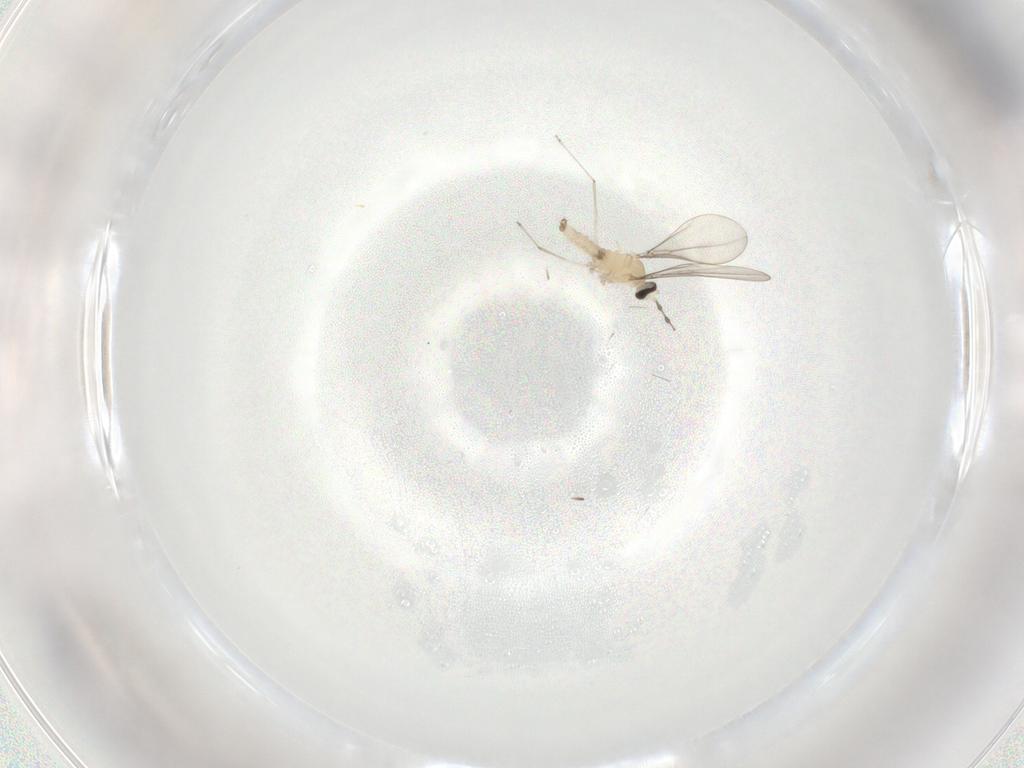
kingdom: Animalia
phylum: Arthropoda
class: Insecta
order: Diptera
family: Cecidomyiidae
